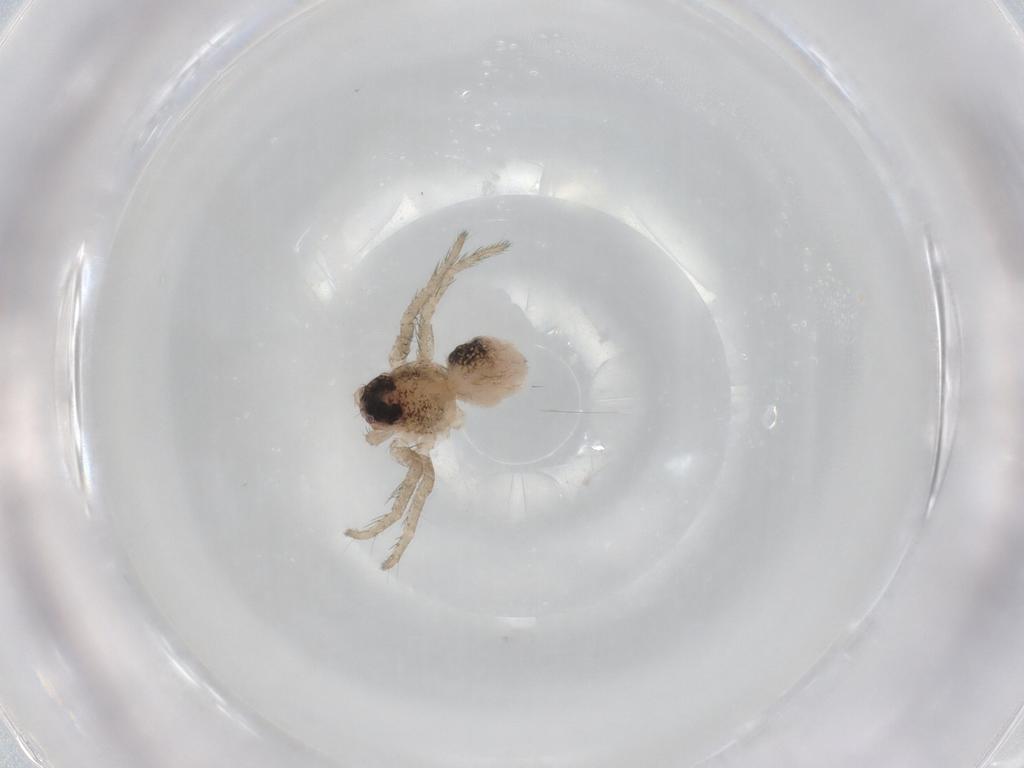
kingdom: Animalia
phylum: Arthropoda
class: Arachnida
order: Araneae
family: Lycosidae
